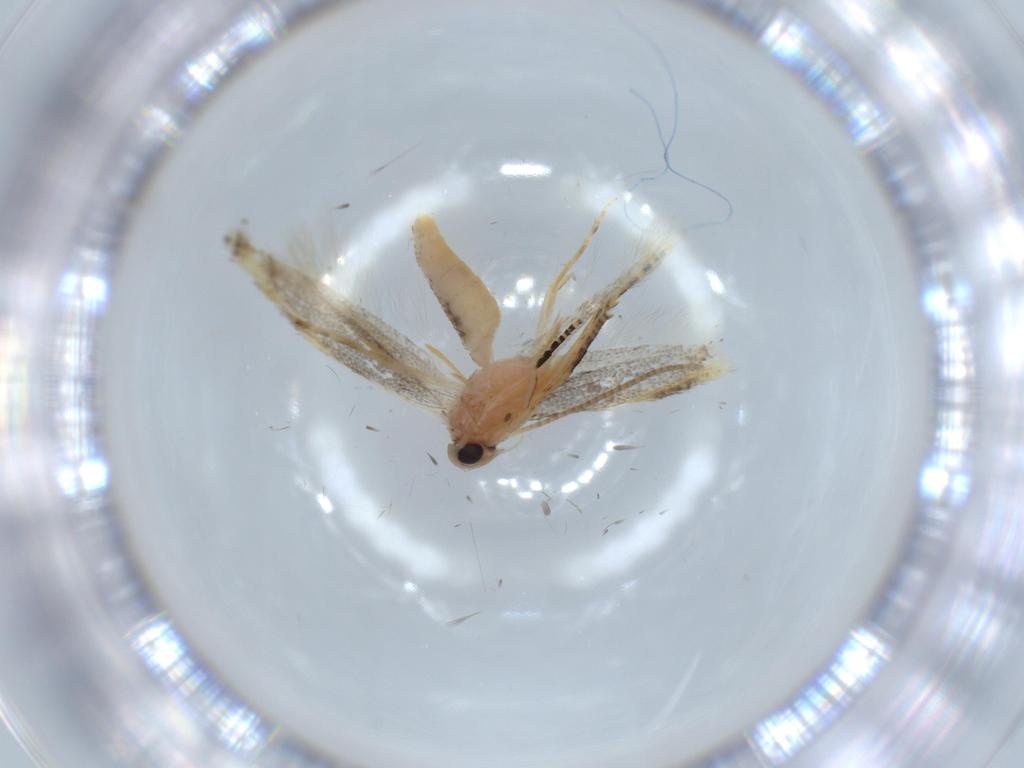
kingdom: Animalia
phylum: Arthropoda
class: Insecta
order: Lepidoptera
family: Bucculatricidae
